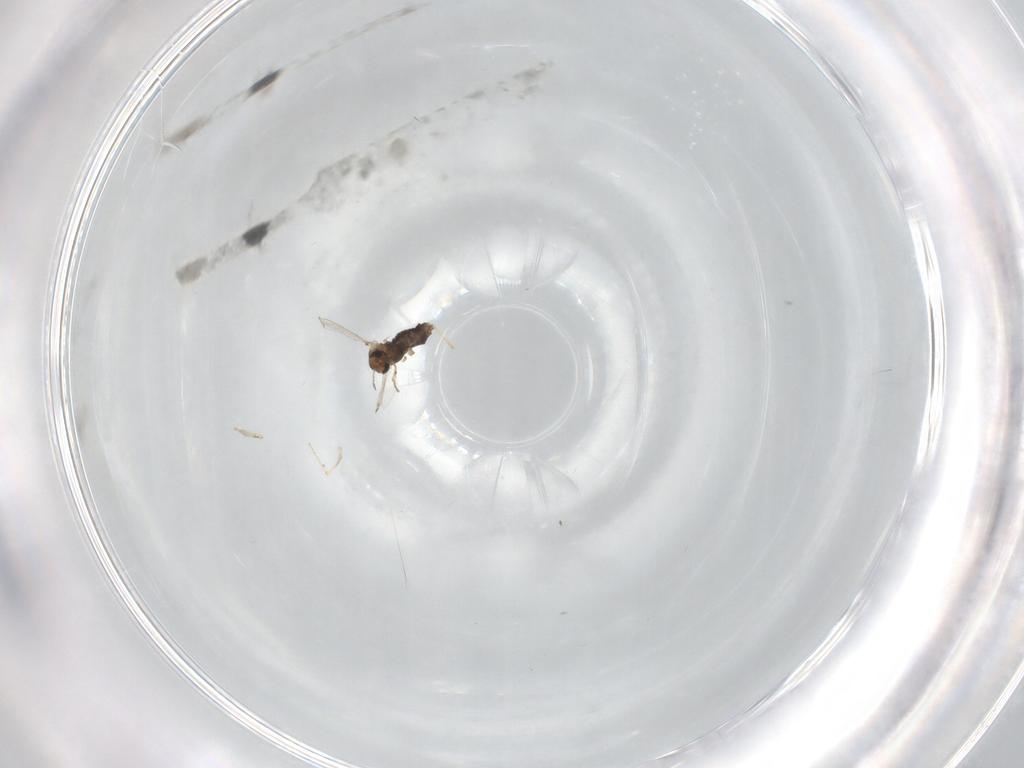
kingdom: Animalia
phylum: Arthropoda
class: Insecta
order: Diptera
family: Chironomidae
